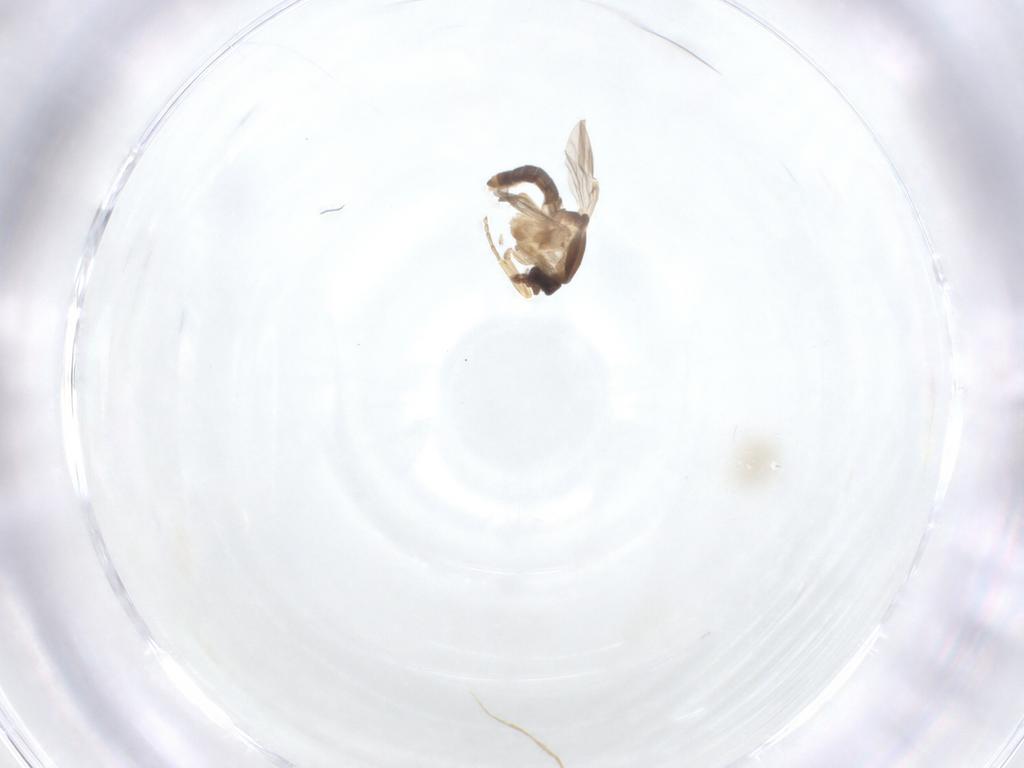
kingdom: Animalia
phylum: Arthropoda
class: Insecta
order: Diptera
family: Ceratopogonidae
